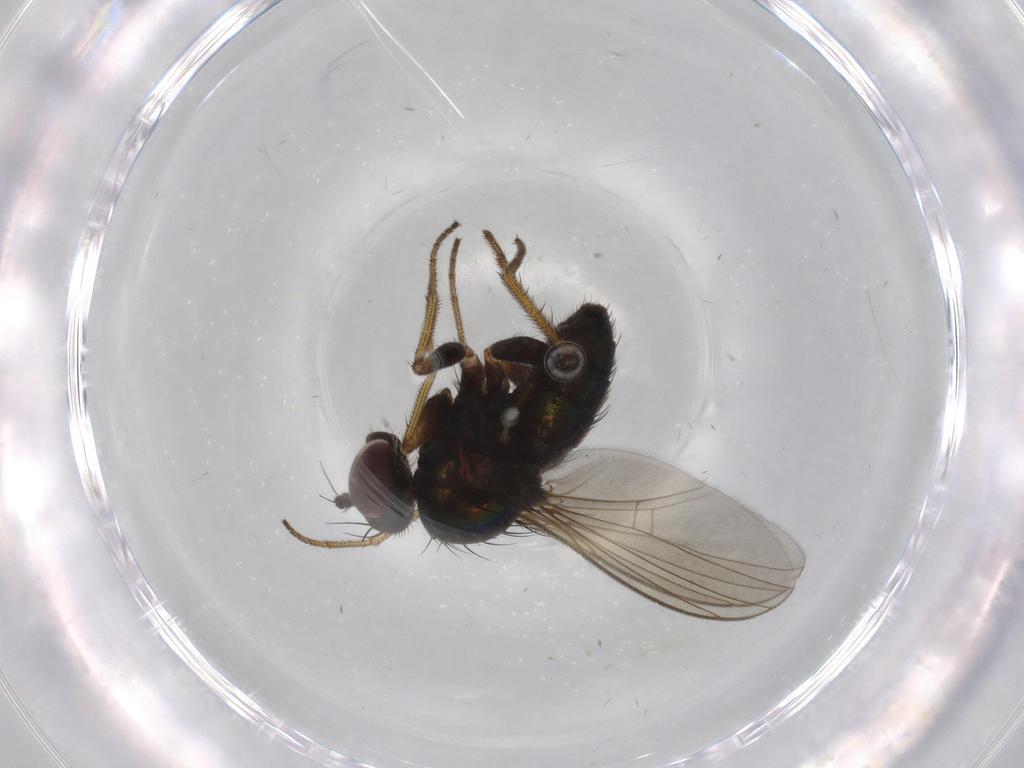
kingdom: Animalia
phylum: Arthropoda
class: Insecta
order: Diptera
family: Dolichopodidae
